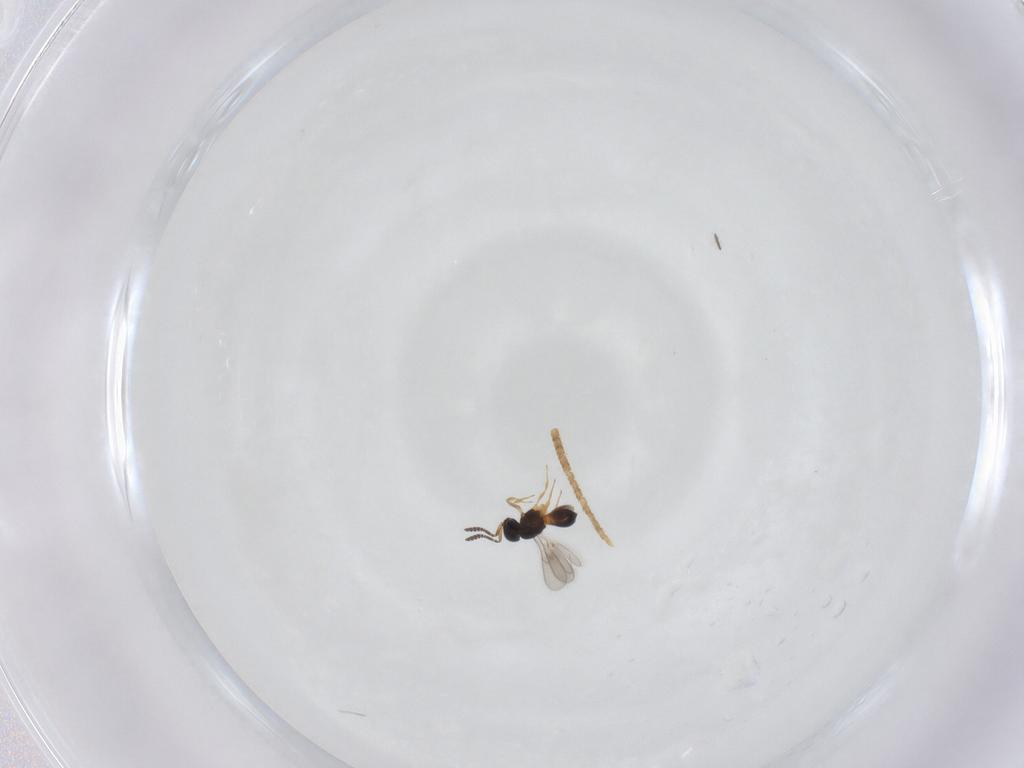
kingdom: Animalia
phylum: Arthropoda
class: Insecta
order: Hymenoptera
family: Scelionidae
